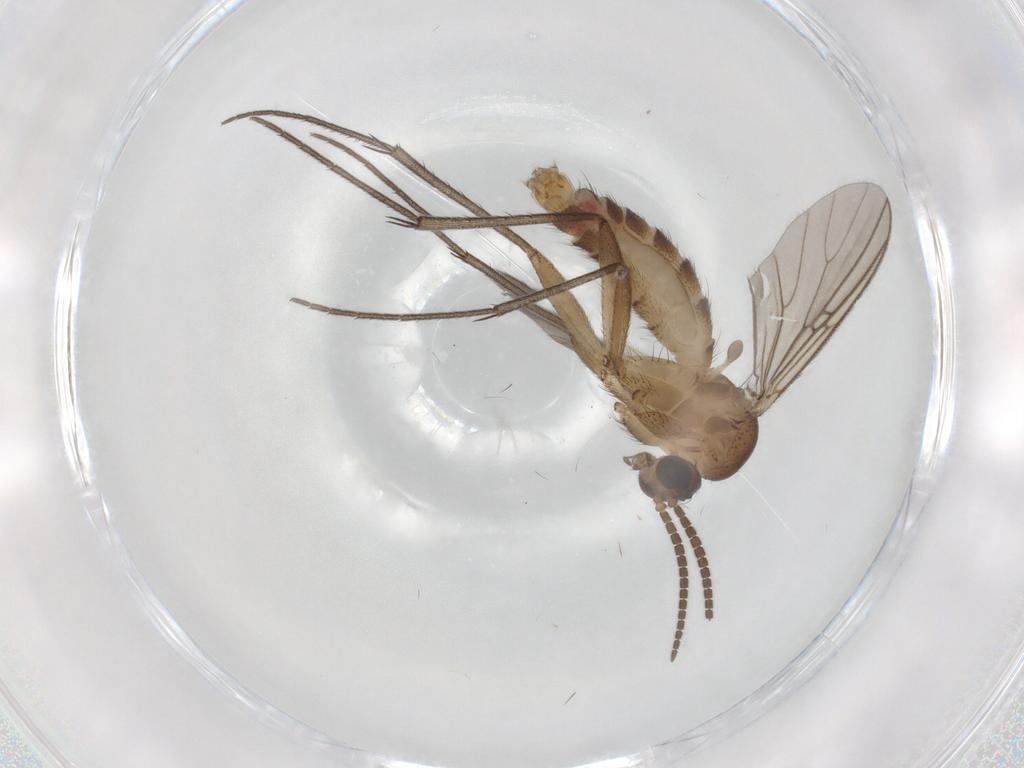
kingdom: Animalia
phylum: Arthropoda
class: Insecta
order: Diptera
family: Mycetophilidae
